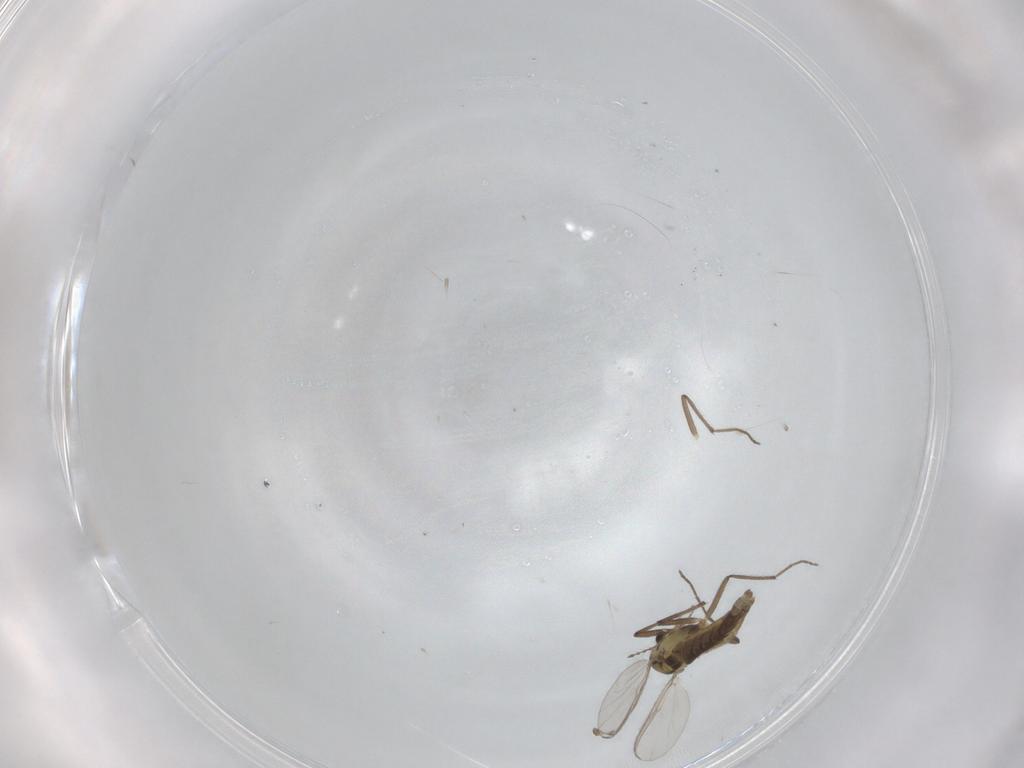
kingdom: Animalia
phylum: Arthropoda
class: Insecta
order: Diptera
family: Chironomidae
